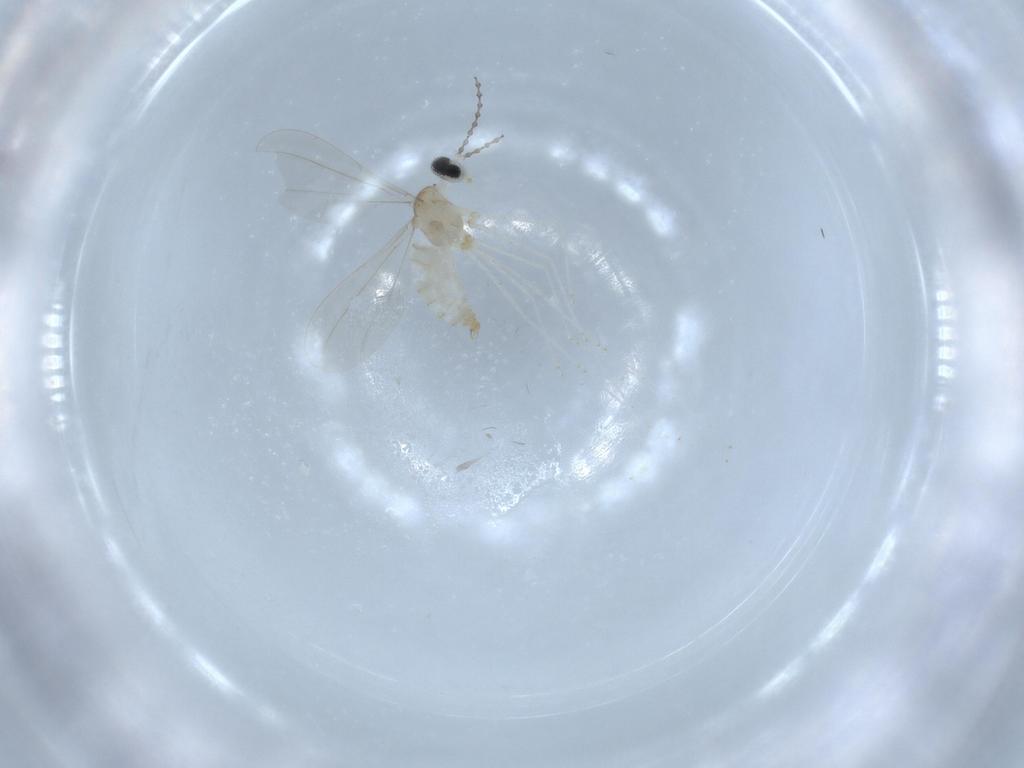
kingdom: Animalia
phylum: Arthropoda
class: Insecta
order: Diptera
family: Cecidomyiidae
